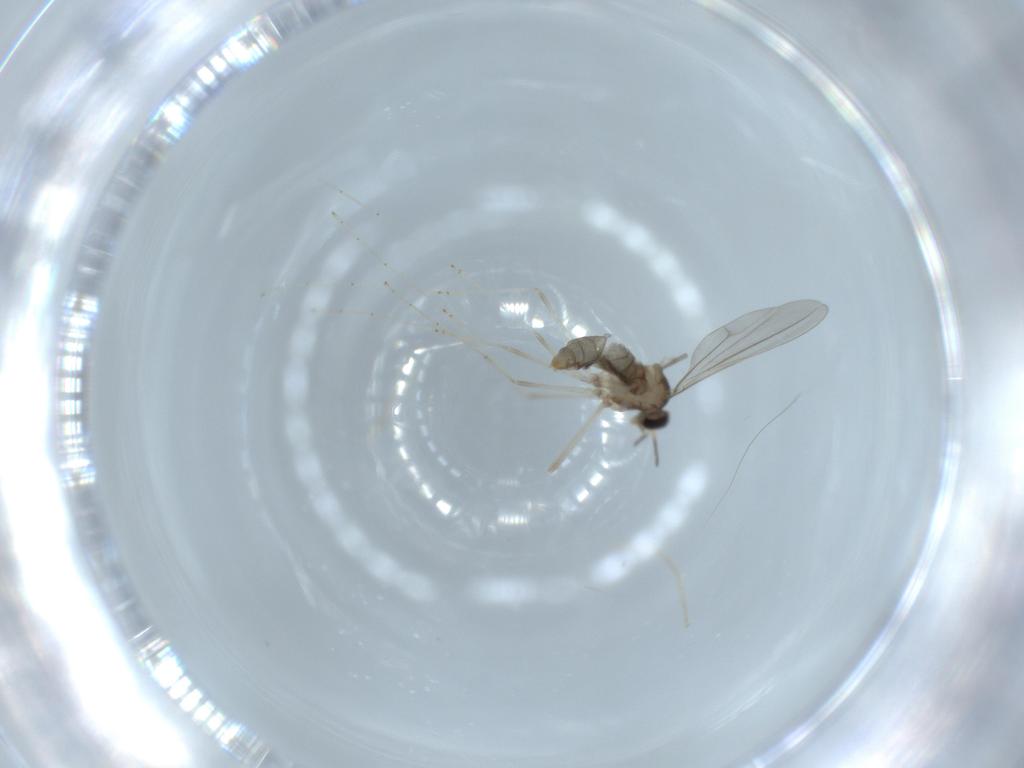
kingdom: Animalia
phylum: Arthropoda
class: Insecta
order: Diptera
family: Cecidomyiidae
